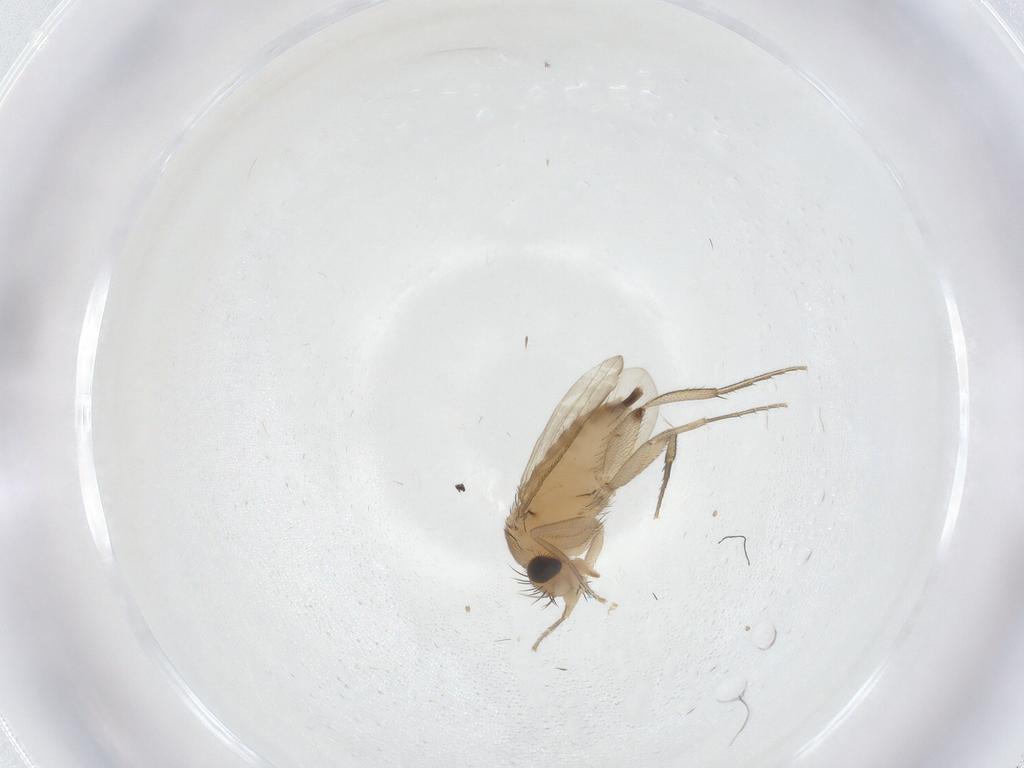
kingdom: Animalia
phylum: Arthropoda
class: Insecta
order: Diptera
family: Phoridae
